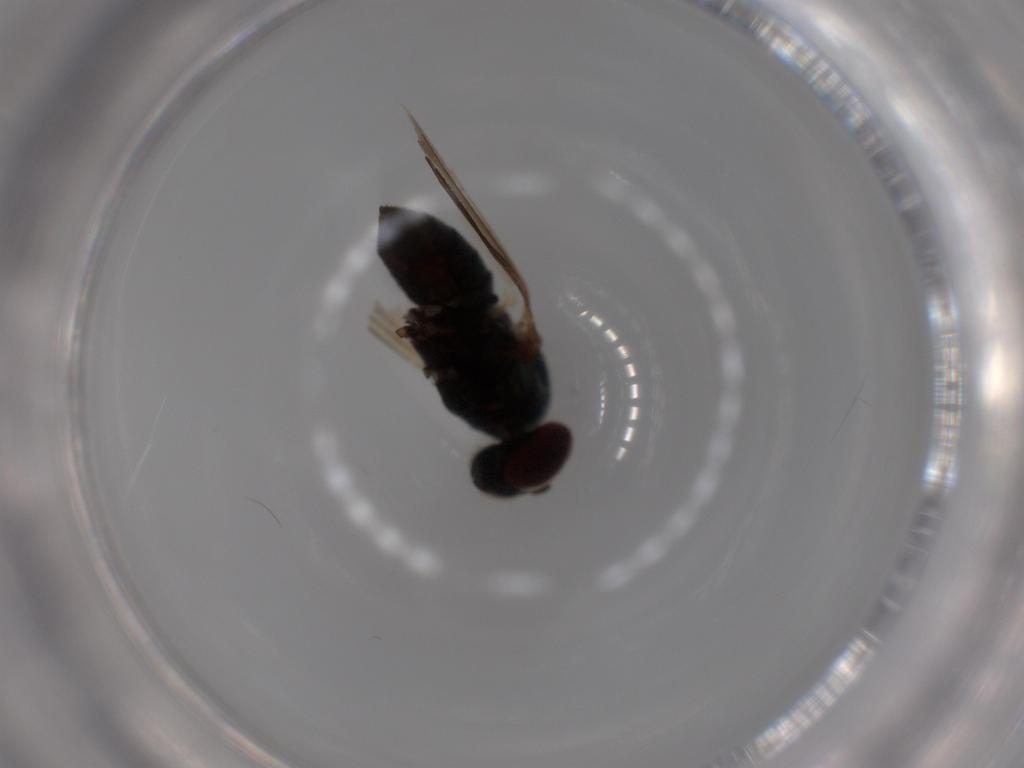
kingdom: Animalia
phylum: Arthropoda
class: Insecta
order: Diptera
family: Dolichopodidae
